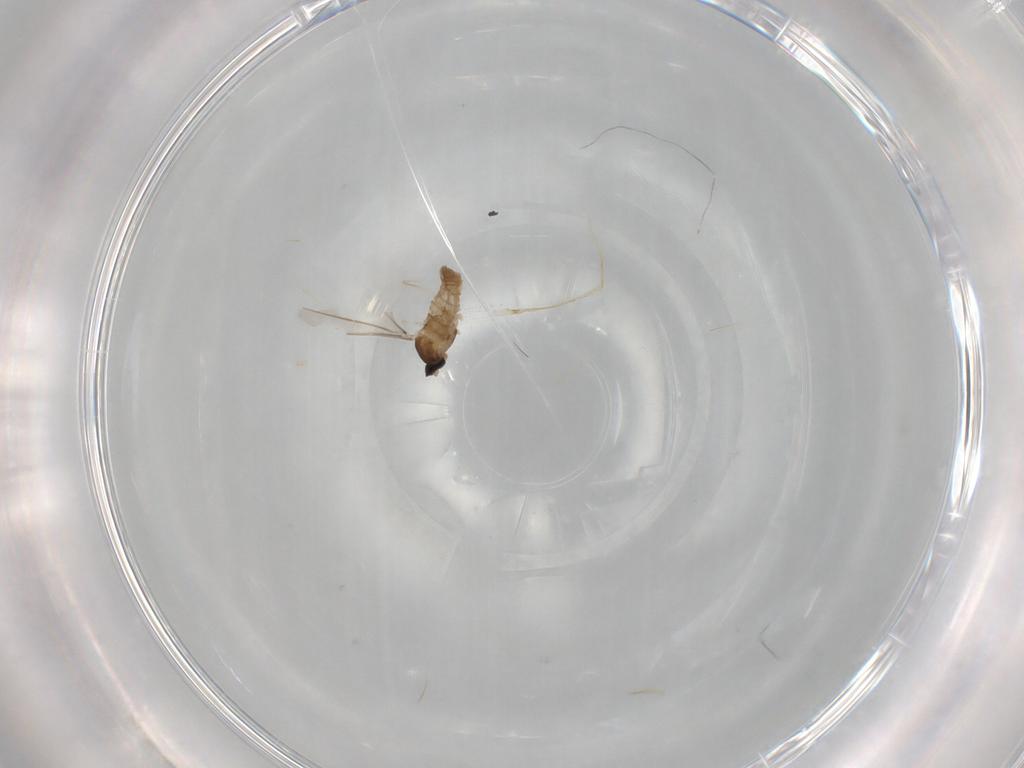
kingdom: Animalia
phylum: Arthropoda
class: Insecta
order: Diptera
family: Cecidomyiidae
